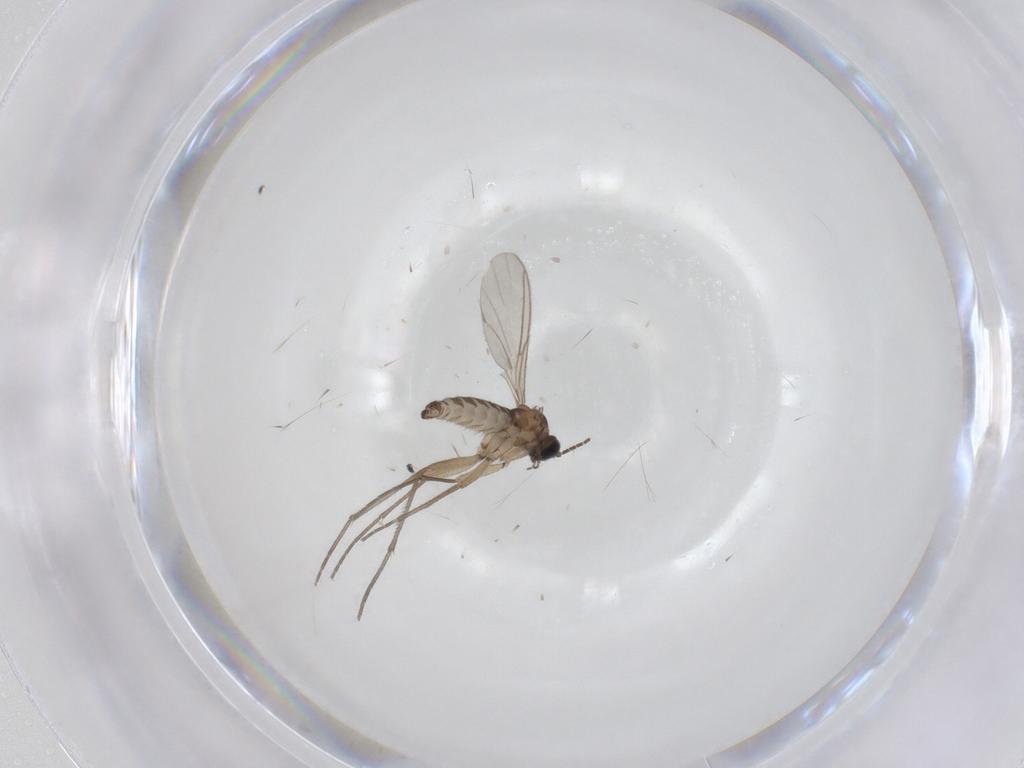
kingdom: Animalia
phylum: Arthropoda
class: Insecta
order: Diptera
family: Sciaridae
